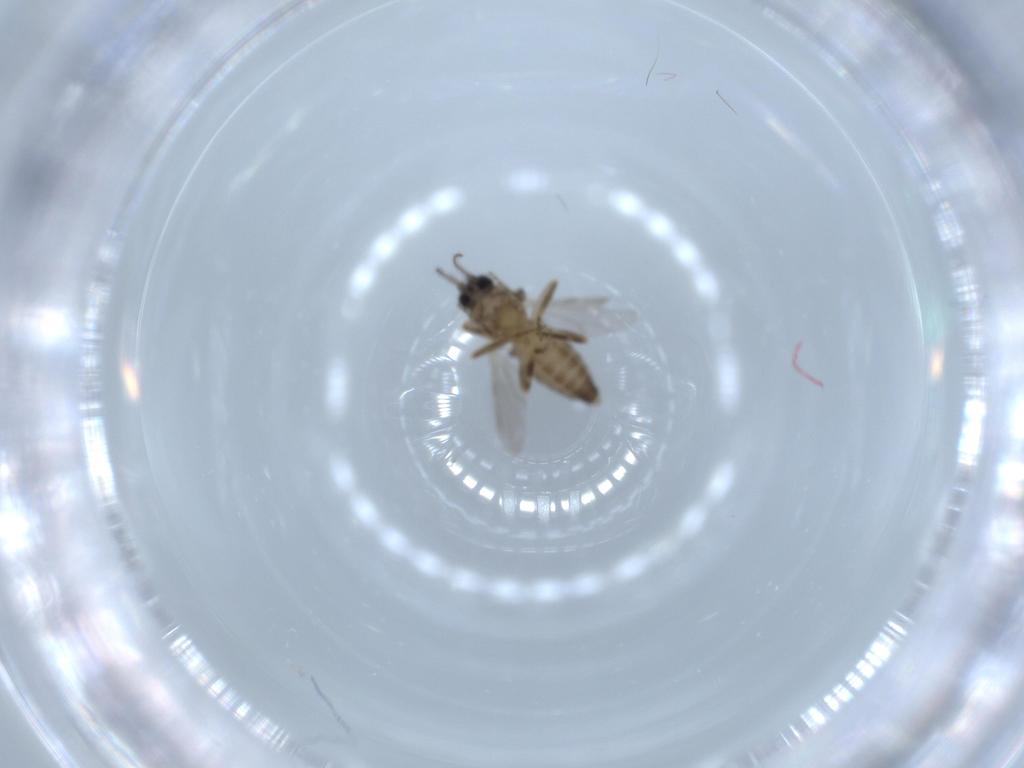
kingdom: Animalia
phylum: Arthropoda
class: Insecta
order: Diptera
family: Ceratopogonidae
